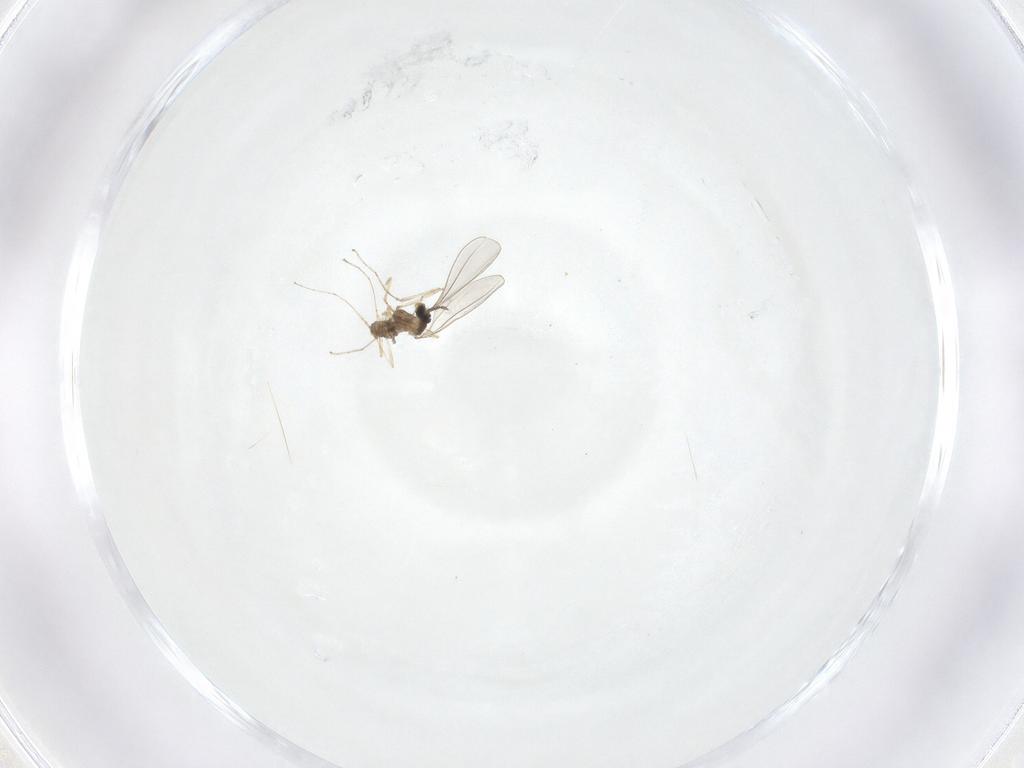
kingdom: Animalia
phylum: Arthropoda
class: Insecta
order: Diptera
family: Cecidomyiidae
